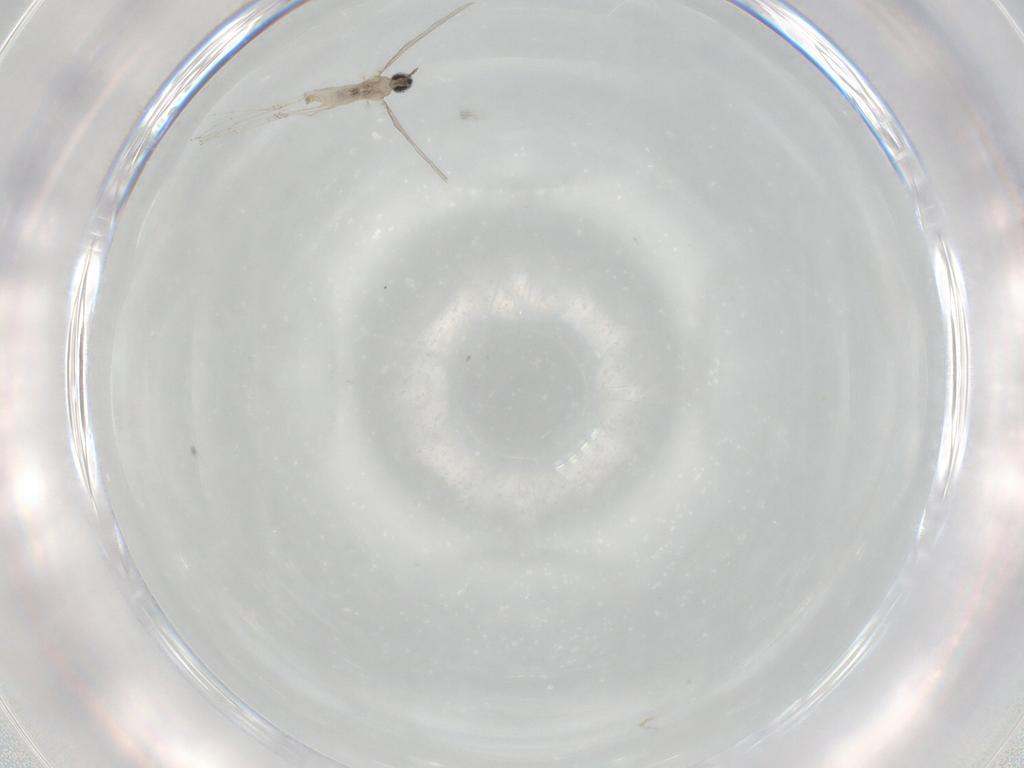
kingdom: Animalia
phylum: Arthropoda
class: Insecta
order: Diptera
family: Cecidomyiidae
